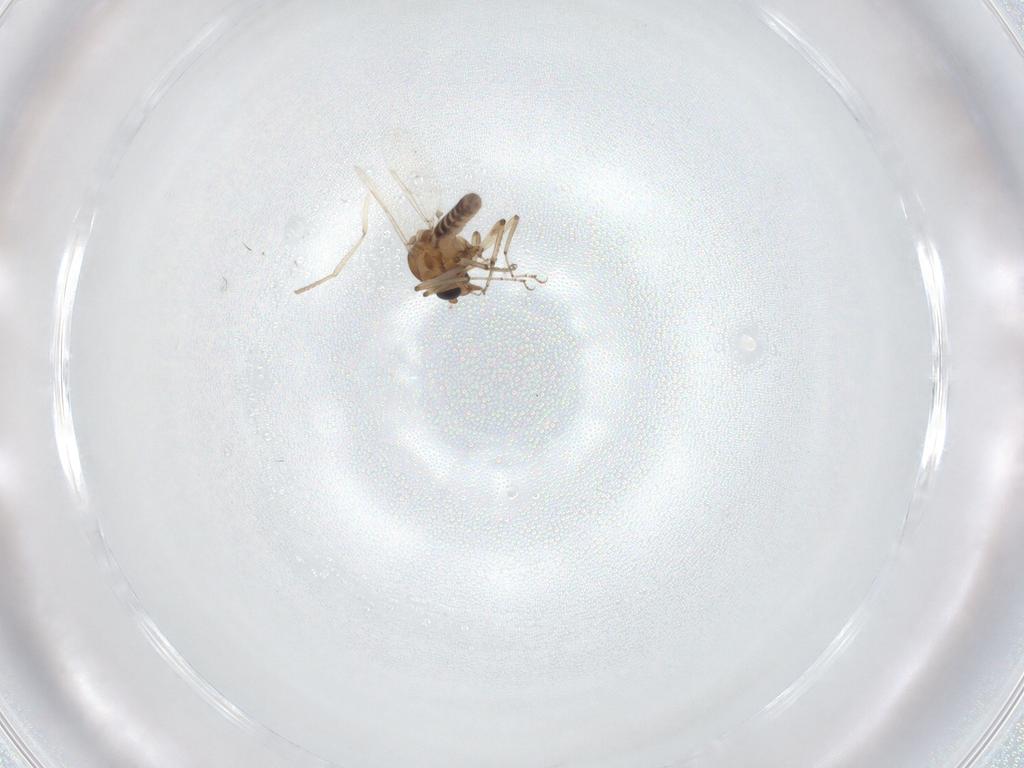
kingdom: Animalia
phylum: Arthropoda
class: Insecta
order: Diptera
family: Ceratopogonidae
